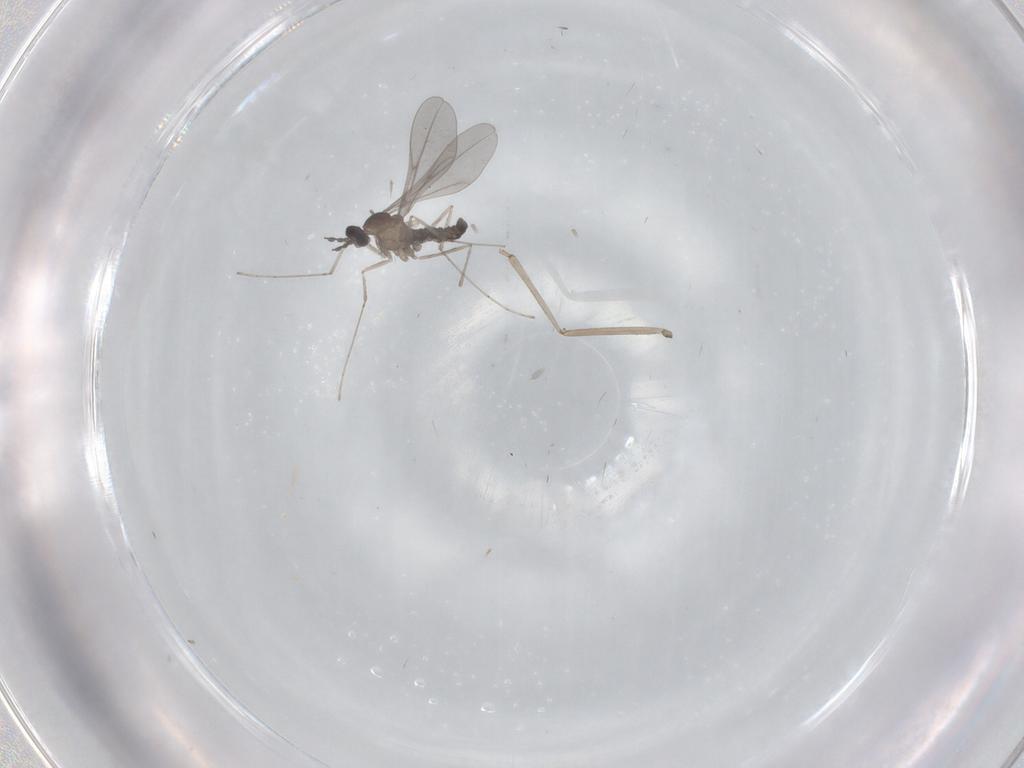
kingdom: Animalia
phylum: Arthropoda
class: Insecta
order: Diptera
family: Cecidomyiidae
